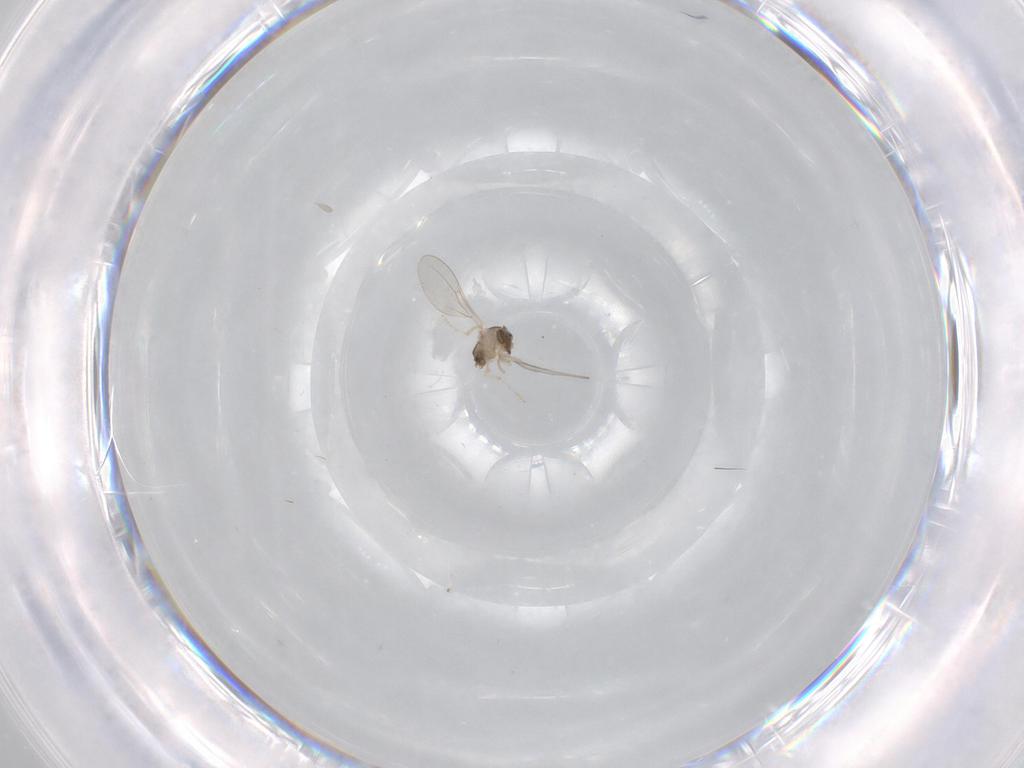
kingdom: Animalia
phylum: Arthropoda
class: Insecta
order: Diptera
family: Cecidomyiidae
